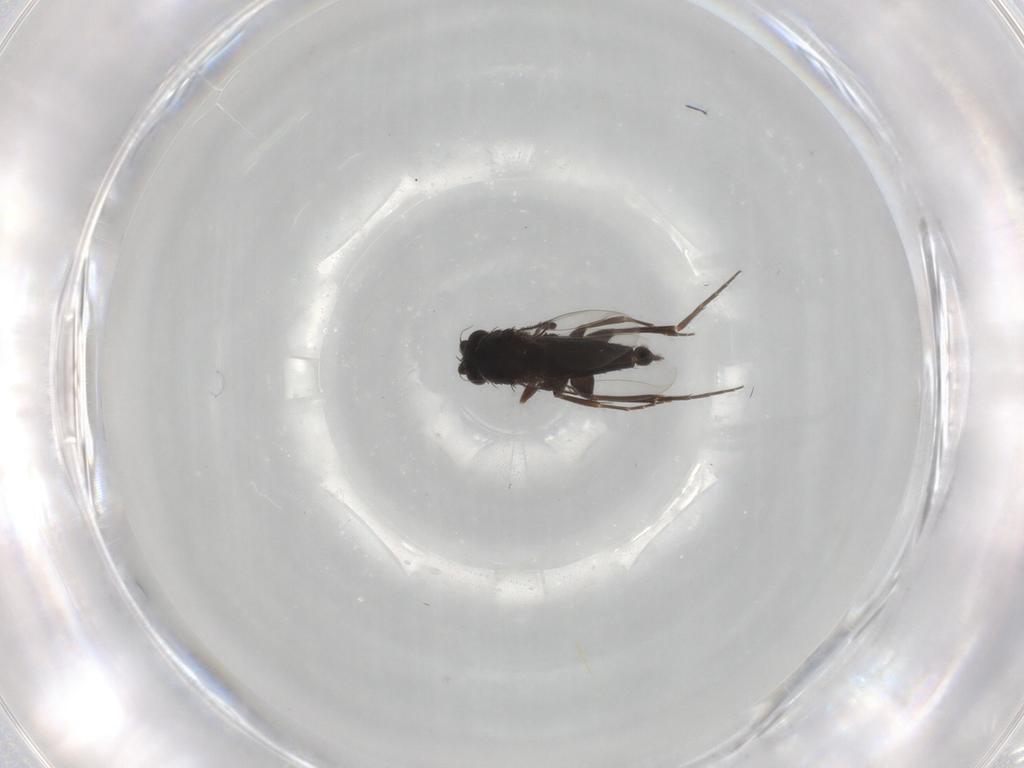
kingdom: Animalia
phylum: Arthropoda
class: Insecta
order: Diptera
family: Phoridae
